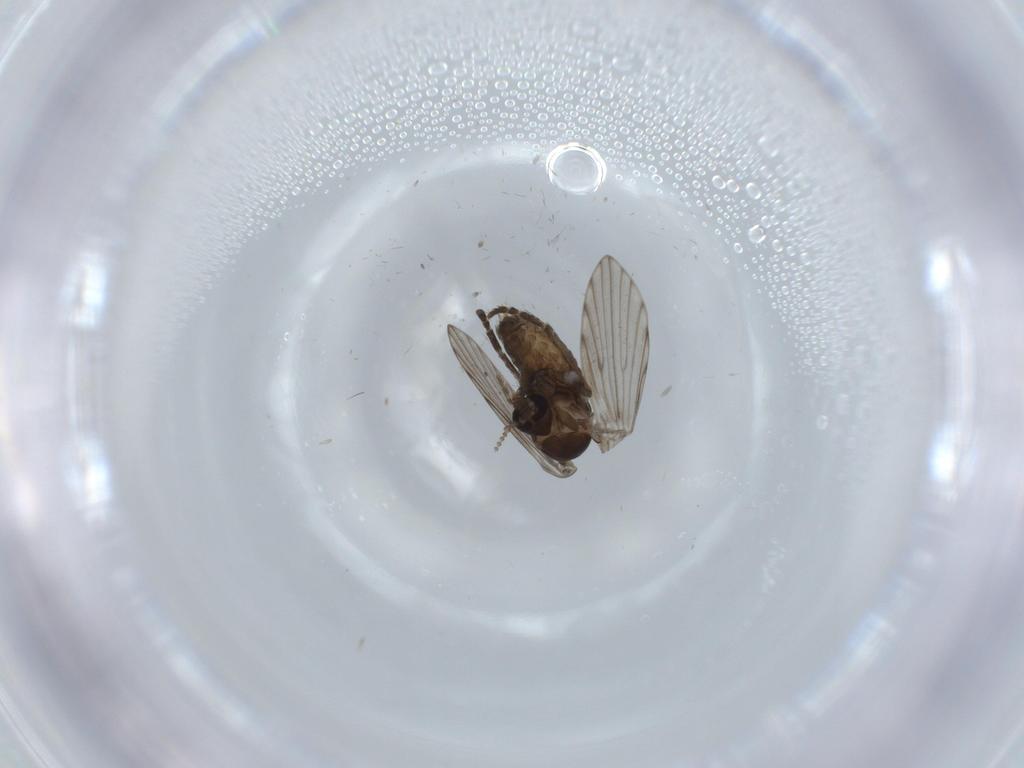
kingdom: Animalia
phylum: Arthropoda
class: Insecta
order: Diptera
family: Psychodidae
